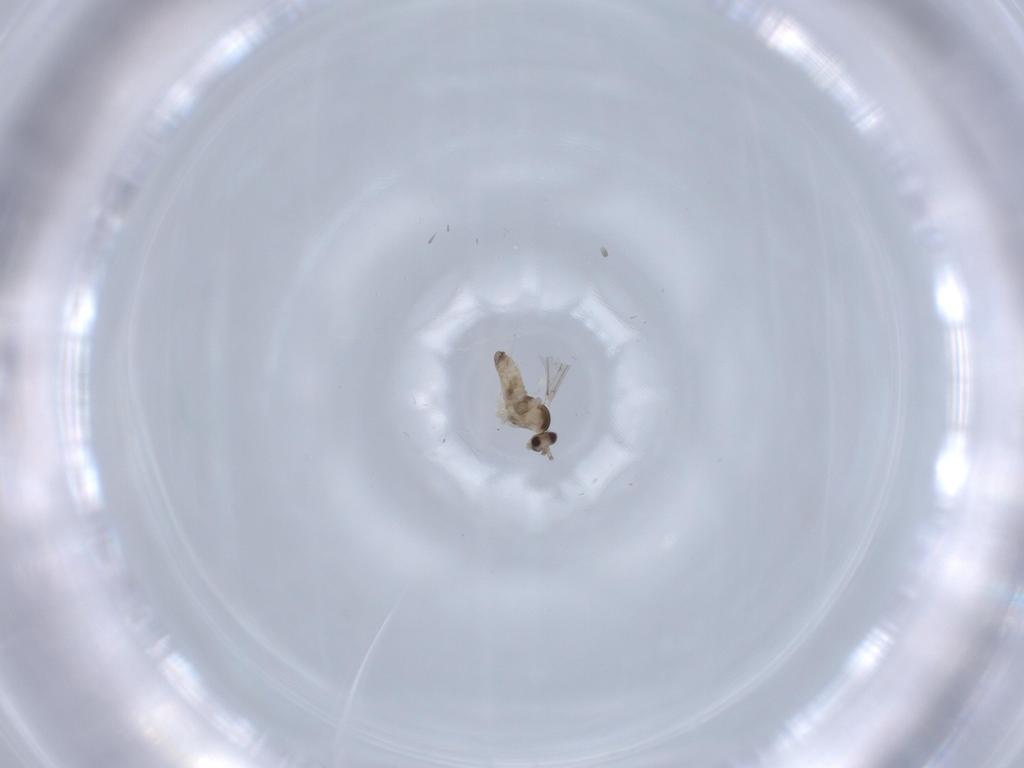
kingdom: Animalia
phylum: Arthropoda
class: Insecta
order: Diptera
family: Cecidomyiidae
